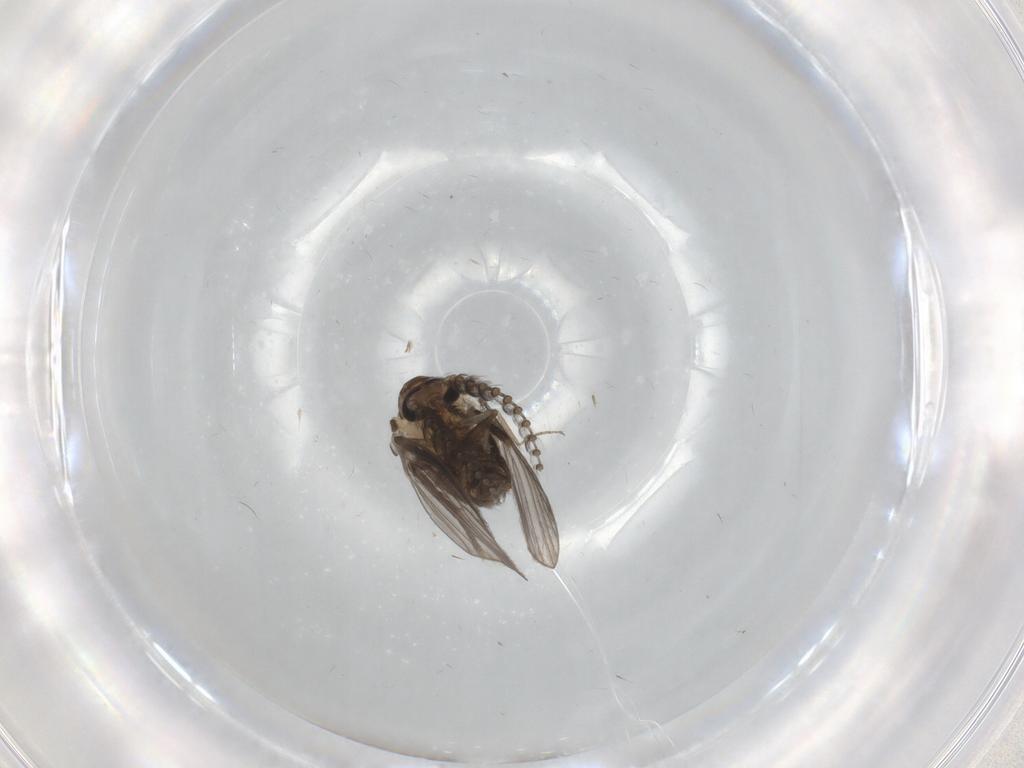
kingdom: Animalia
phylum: Arthropoda
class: Insecta
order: Diptera
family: Psychodidae
